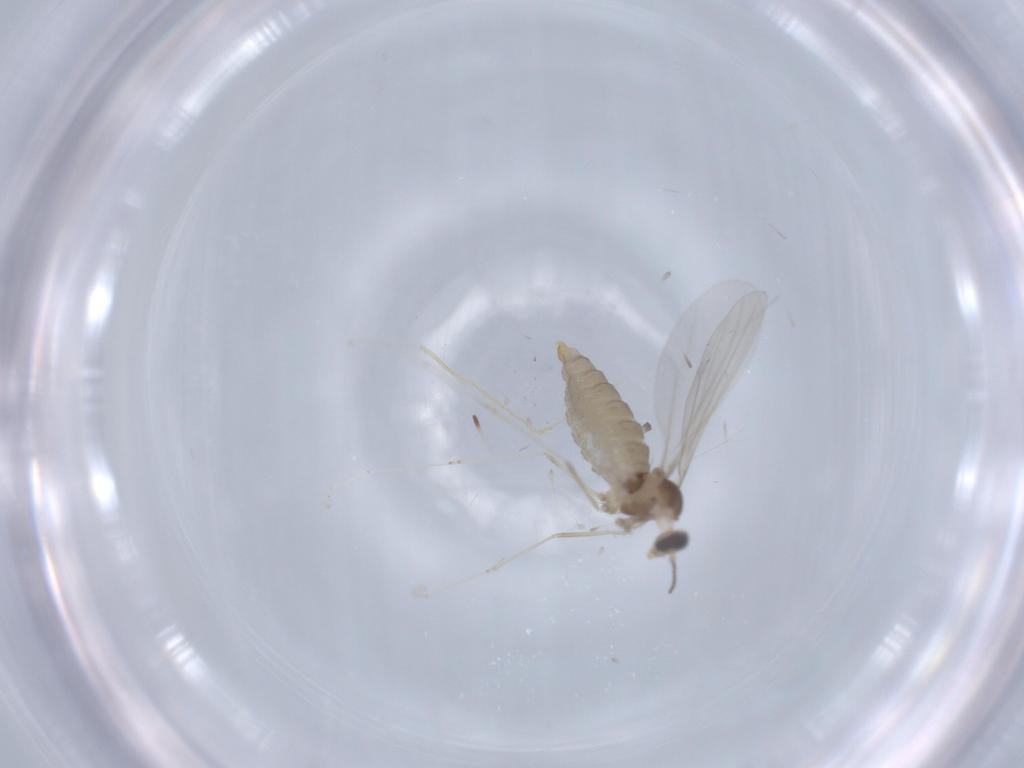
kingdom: Animalia
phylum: Arthropoda
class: Insecta
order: Diptera
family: Cecidomyiidae
